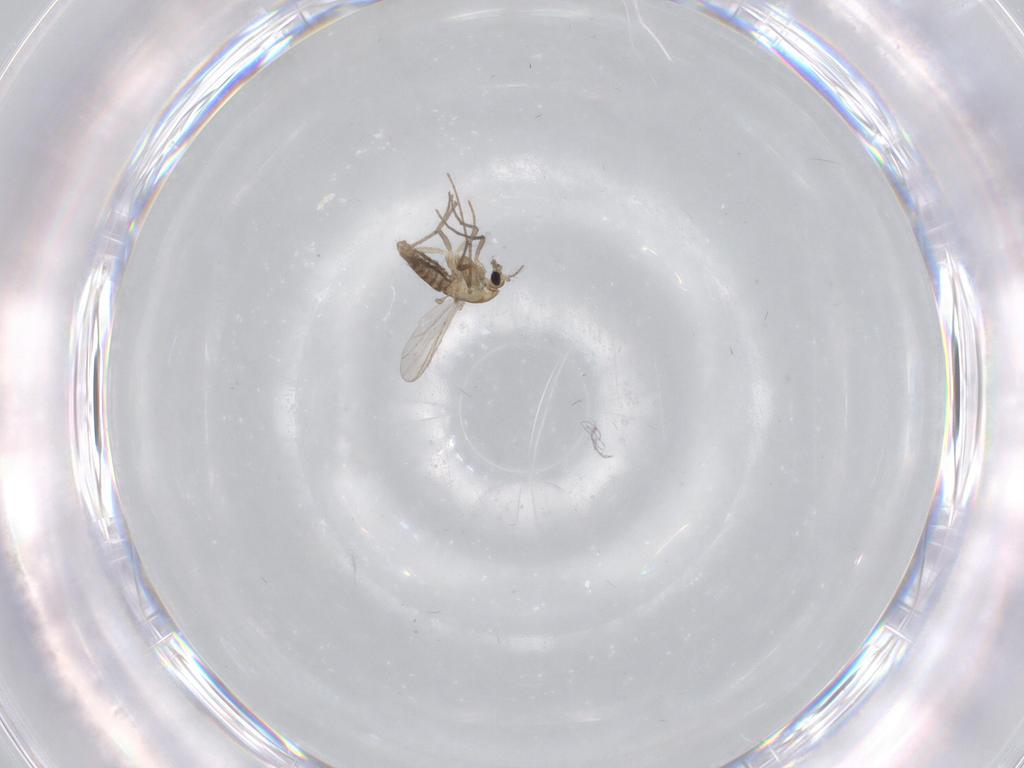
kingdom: Animalia
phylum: Arthropoda
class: Insecta
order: Diptera
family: Chironomidae
